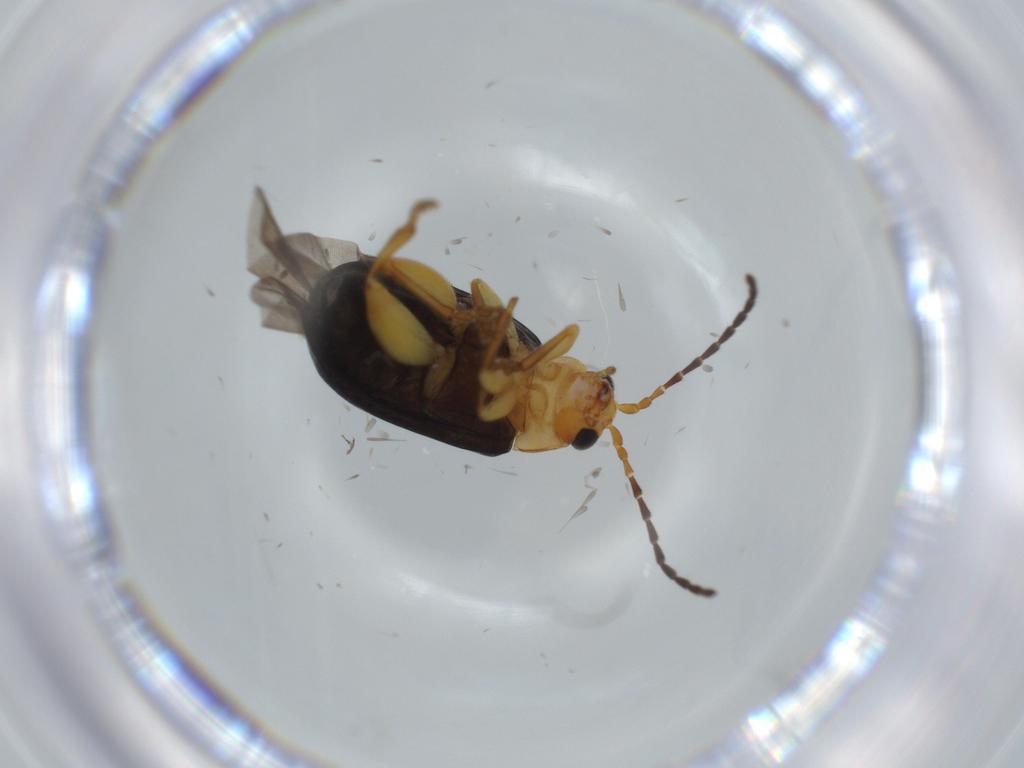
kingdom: Animalia
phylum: Arthropoda
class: Insecta
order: Coleoptera
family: Chrysomelidae
